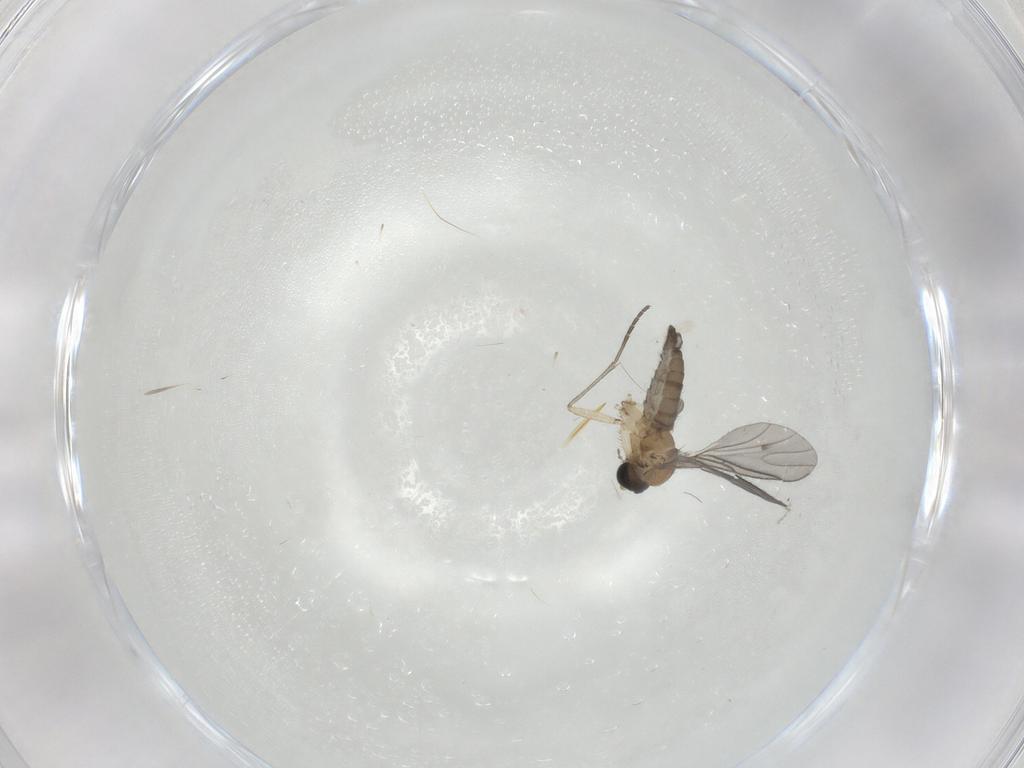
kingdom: Animalia
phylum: Arthropoda
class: Insecta
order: Diptera
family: Sciaridae
